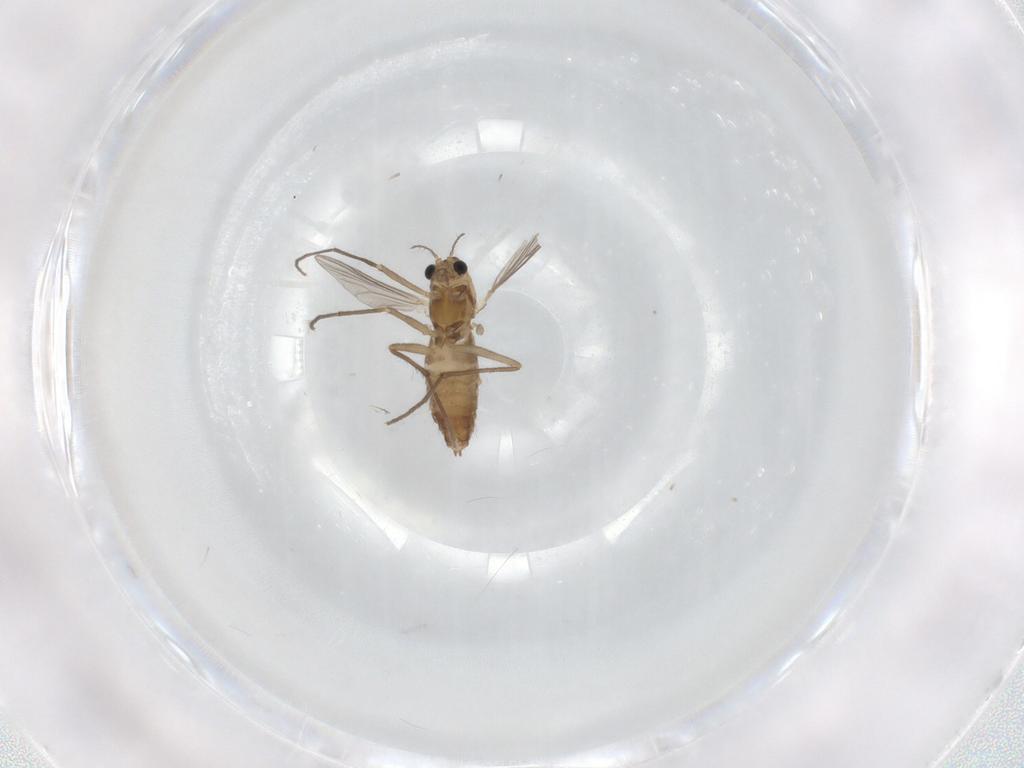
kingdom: Animalia
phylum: Arthropoda
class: Insecta
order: Diptera
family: Chironomidae
